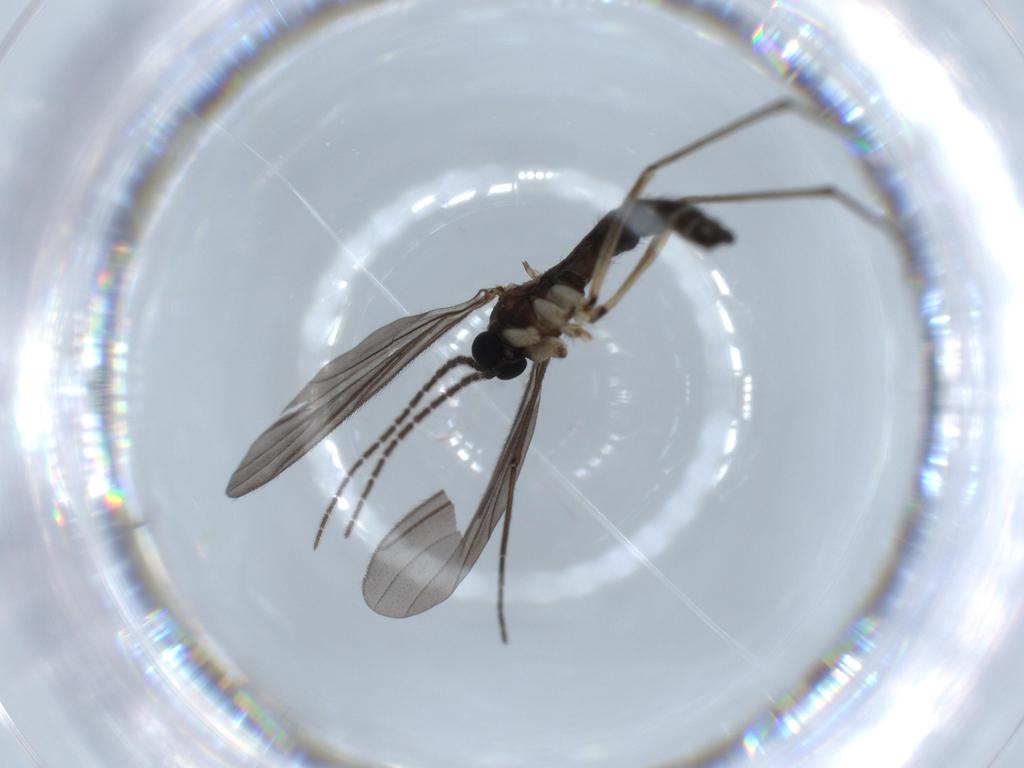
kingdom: Animalia
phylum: Arthropoda
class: Insecta
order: Diptera
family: Sciaridae
